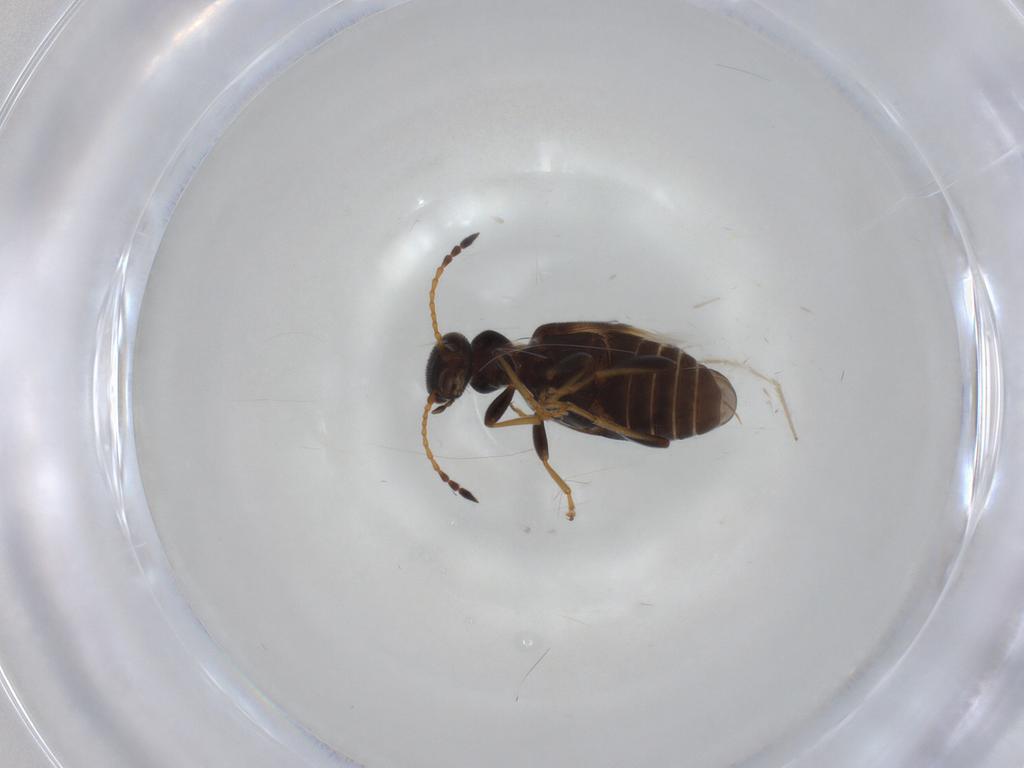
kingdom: Animalia
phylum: Arthropoda
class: Insecta
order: Coleoptera
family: Anthicidae
